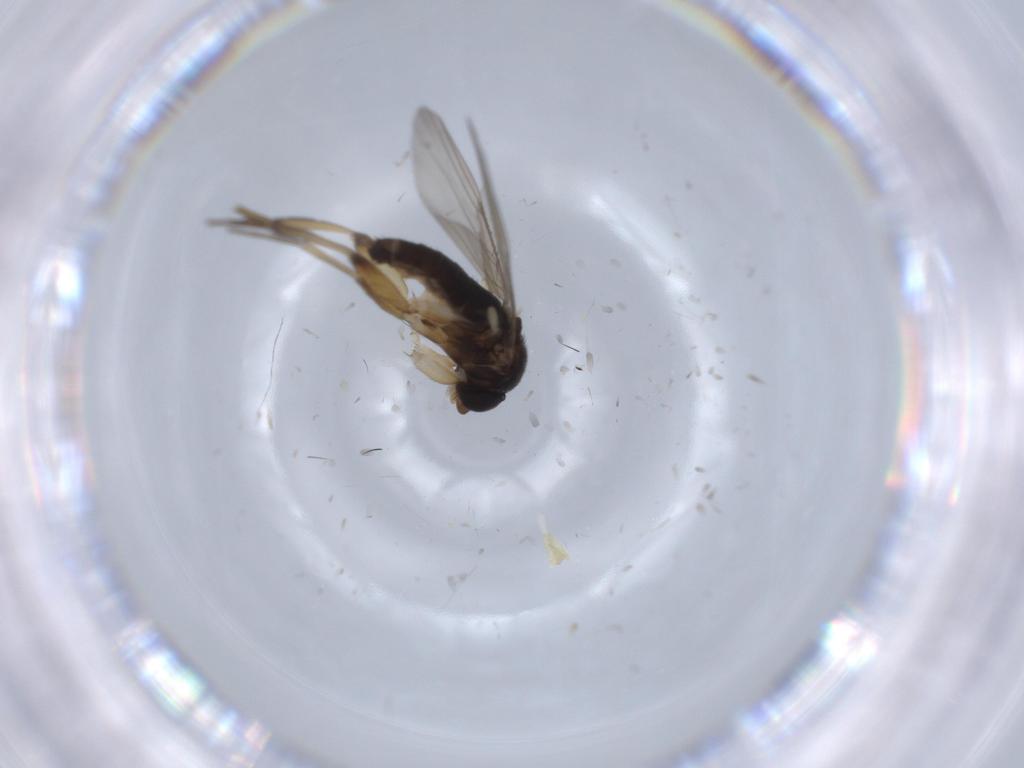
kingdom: Animalia
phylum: Arthropoda
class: Insecta
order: Diptera
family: Phoridae
